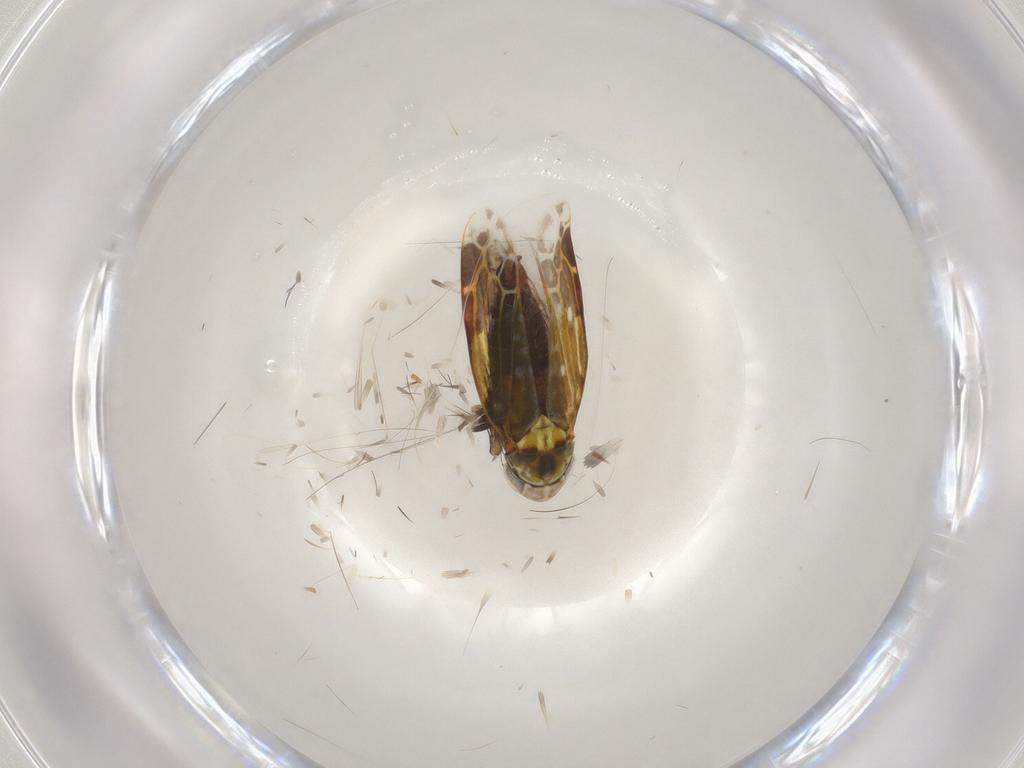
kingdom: Animalia
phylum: Arthropoda
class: Insecta
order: Hemiptera
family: Cicadellidae
